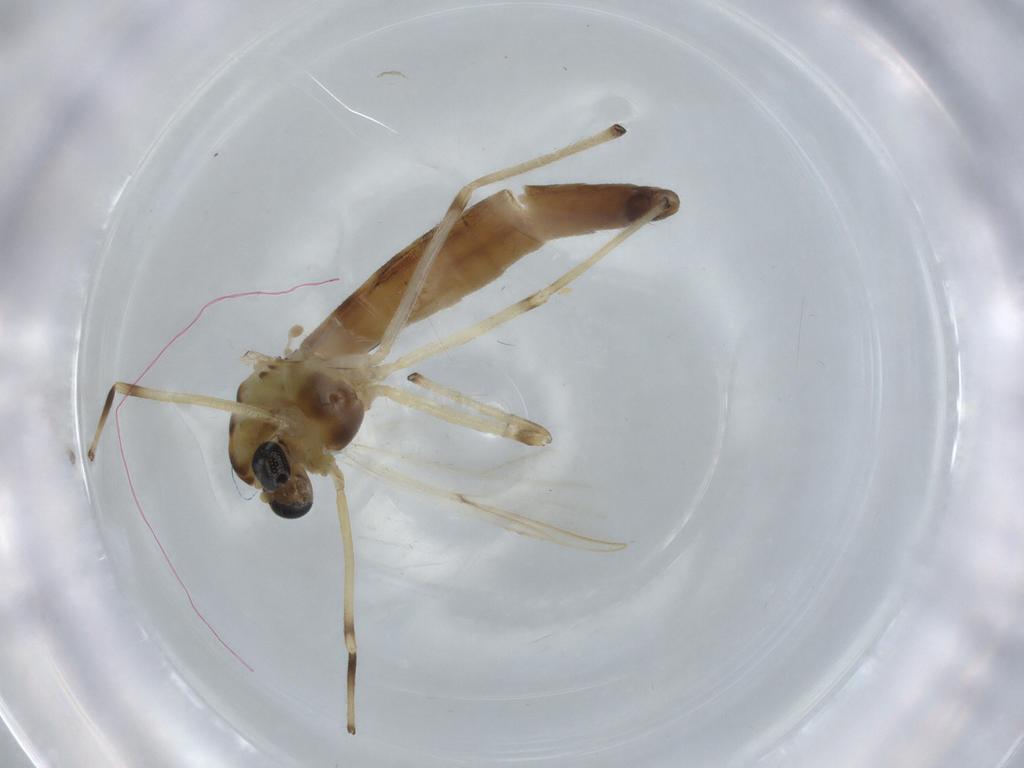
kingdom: Animalia
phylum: Arthropoda
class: Insecta
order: Diptera
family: Chironomidae
